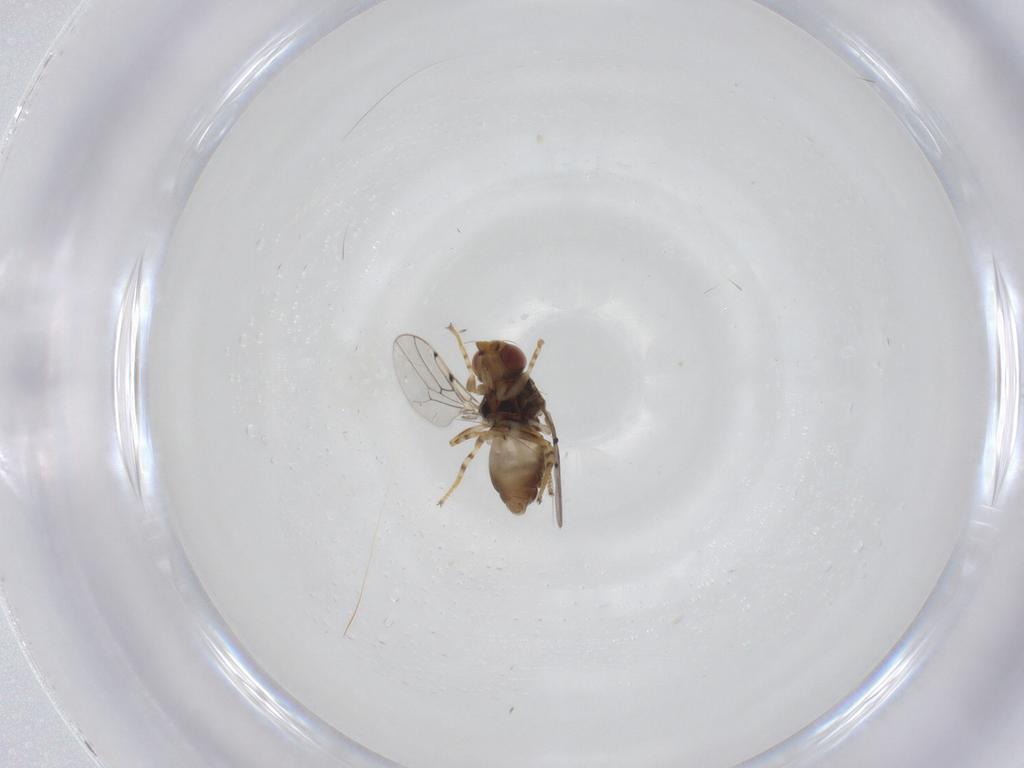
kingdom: Animalia
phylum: Arthropoda
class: Insecta
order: Diptera
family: Chloropidae
